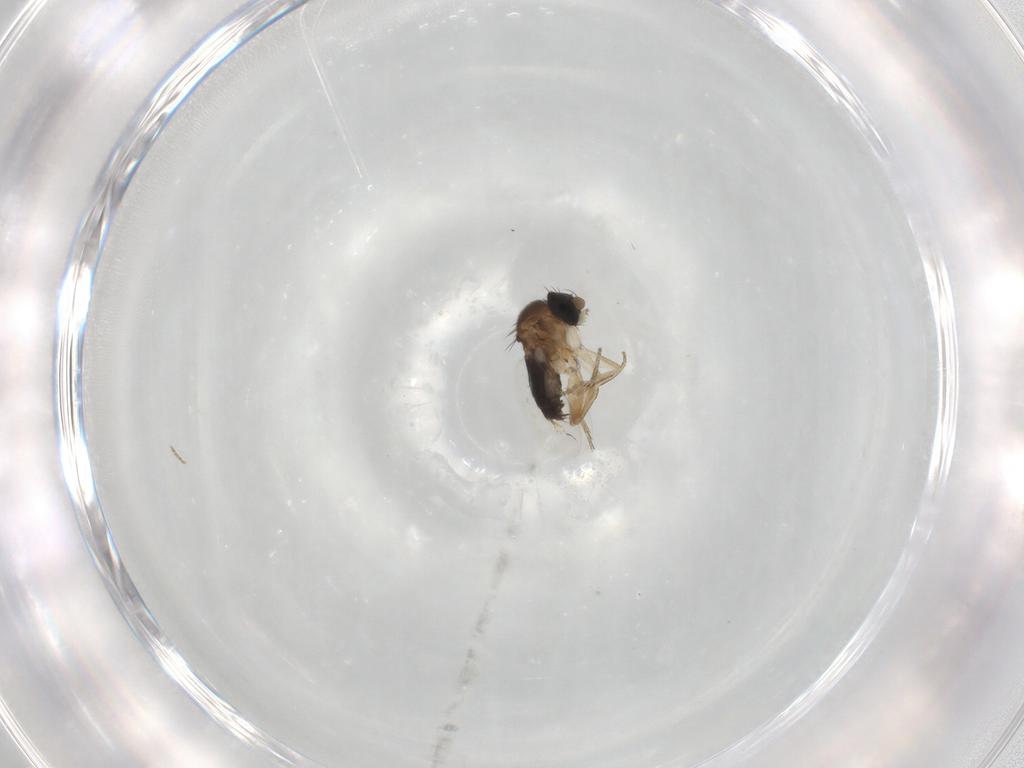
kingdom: Animalia
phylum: Arthropoda
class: Insecta
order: Diptera
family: Phoridae
